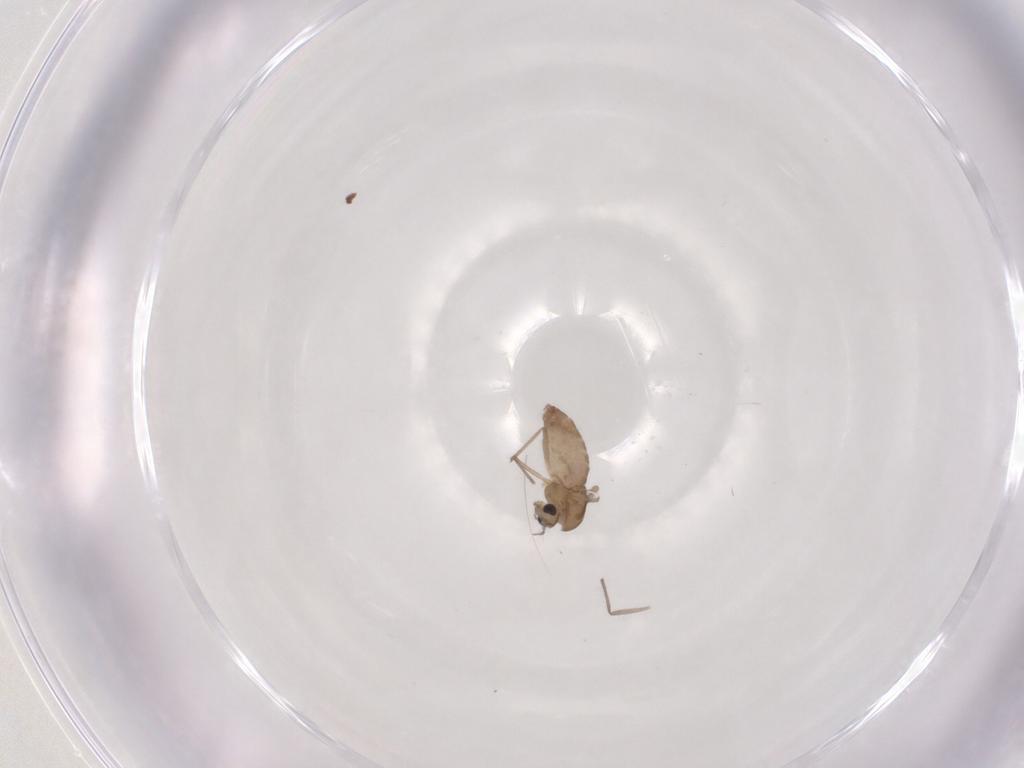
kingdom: Animalia
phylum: Arthropoda
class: Insecta
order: Diptera
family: Chironomidae
